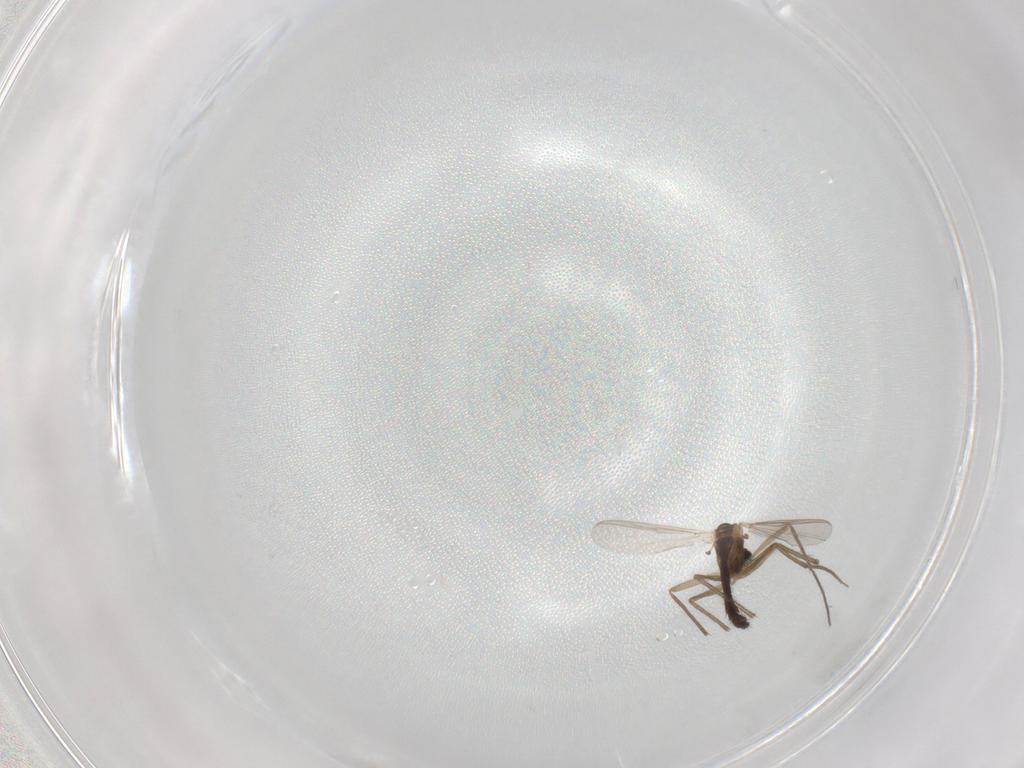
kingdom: Animalia
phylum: Arthropoda
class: Insecta
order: Diptera
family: Chironomidae
